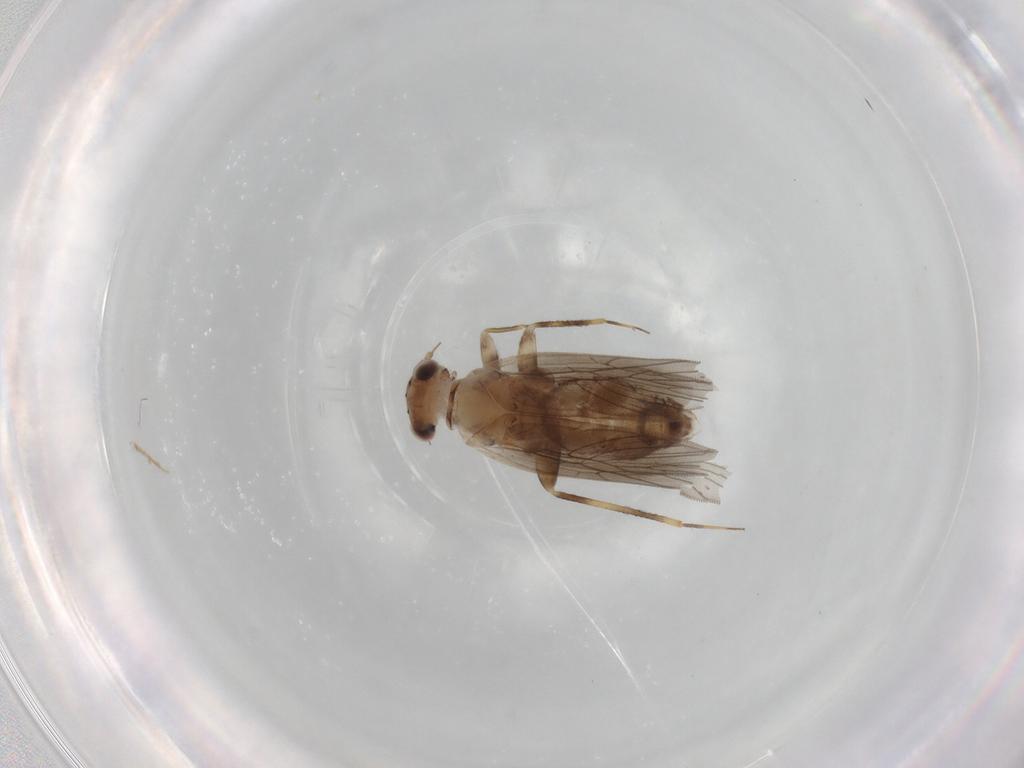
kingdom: Animalia
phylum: Arthropoda
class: Insecta
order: Psocodea
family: Lepidopsocidae
